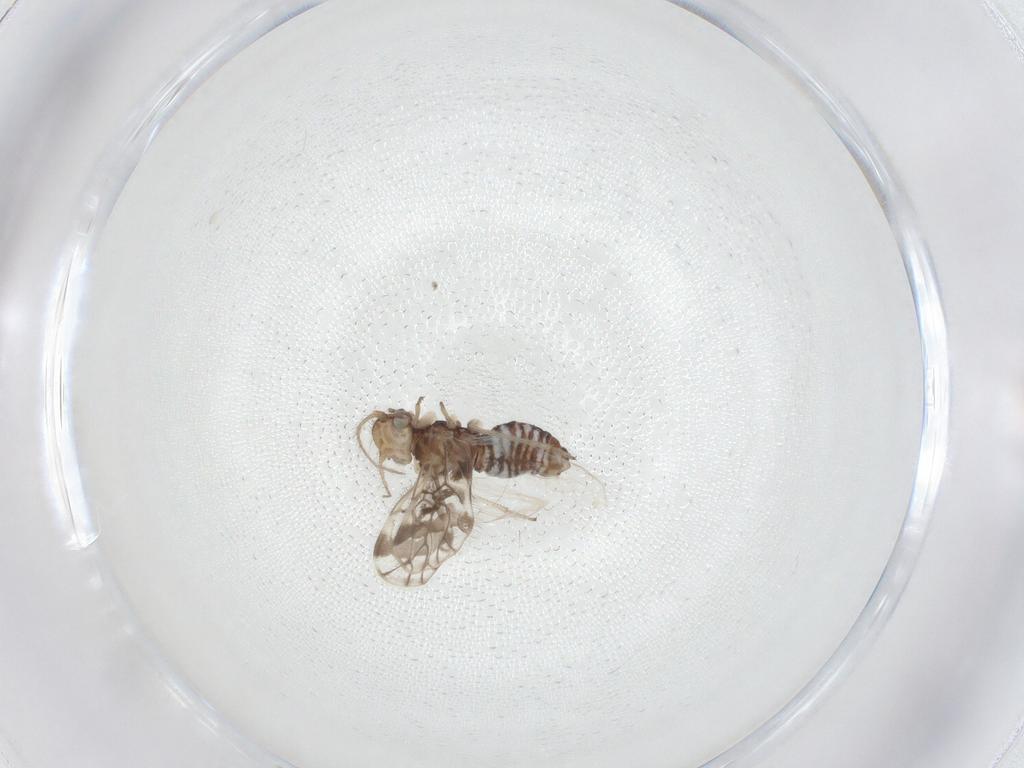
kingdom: Animalia
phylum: Arthropoda
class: Insecta
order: Psocodea
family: Pseudocaeciliidae
